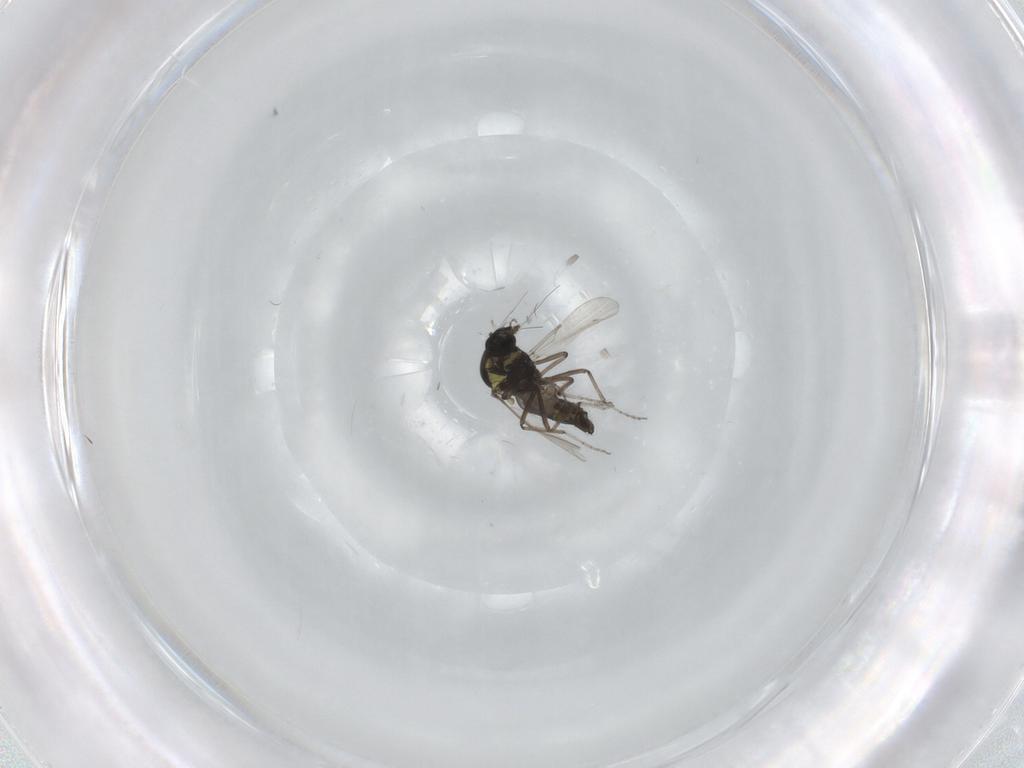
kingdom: Animalia
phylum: Arthropoda
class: Insecta
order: Diptera
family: Ceratopogonidae
